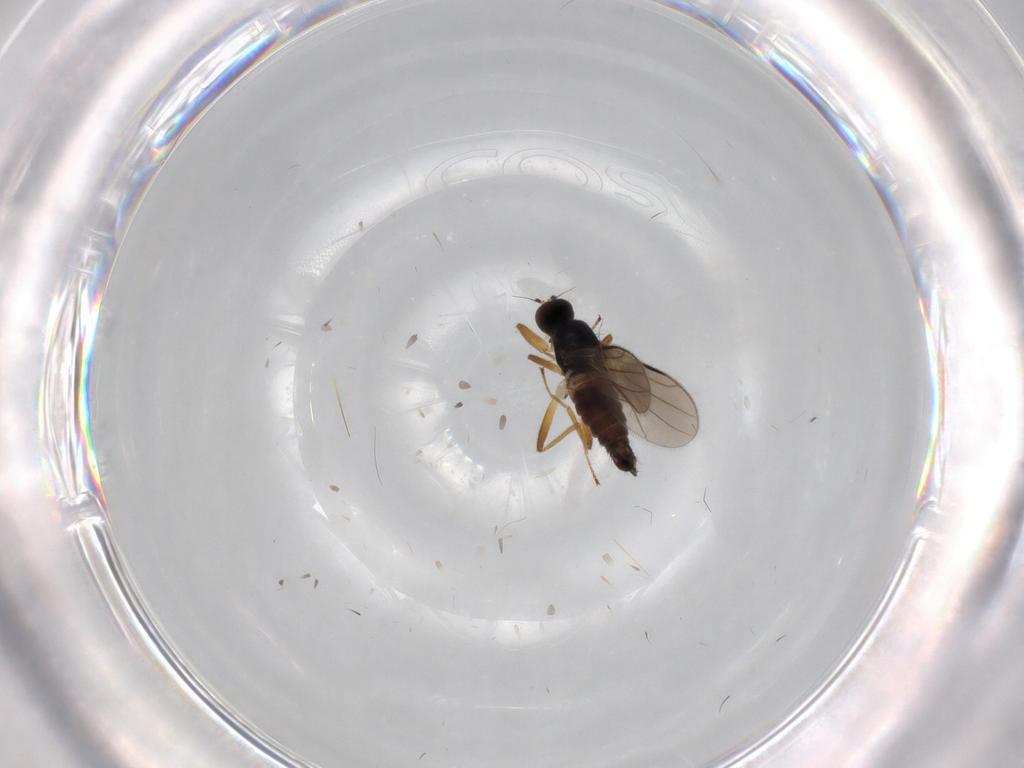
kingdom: Animalia
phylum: Arthropoda
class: Insecta
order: Diptera
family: Hybotidae
